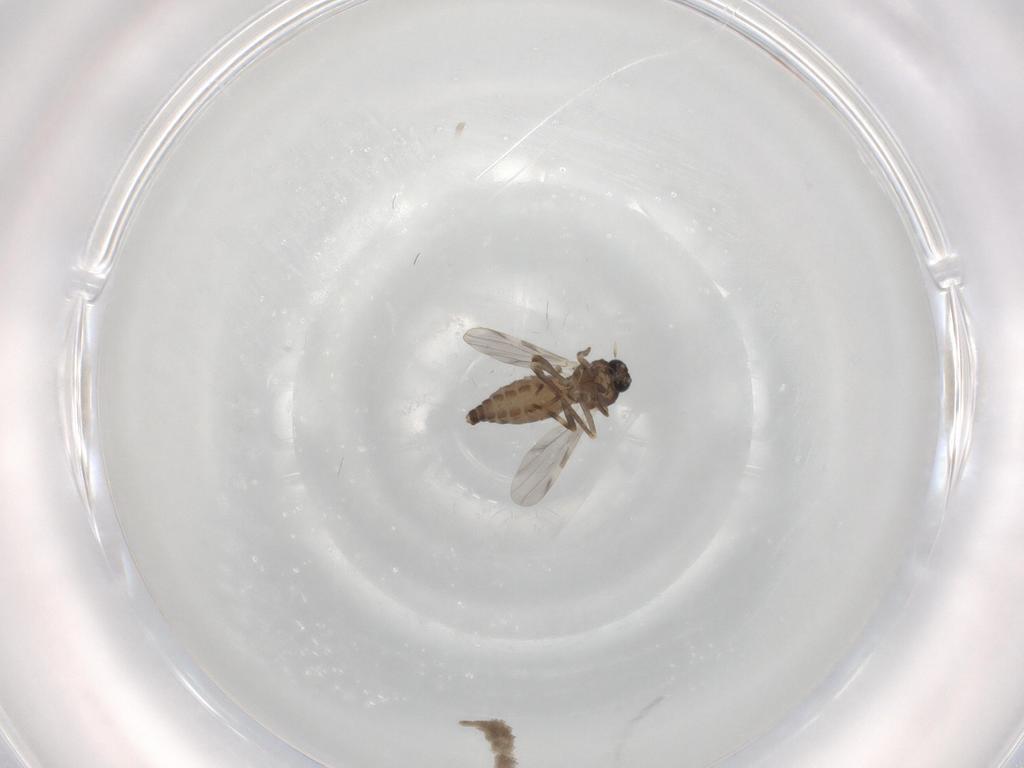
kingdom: Animalia
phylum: Arthropoda
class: Insecta
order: Diptera
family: Ceratopogonidae
